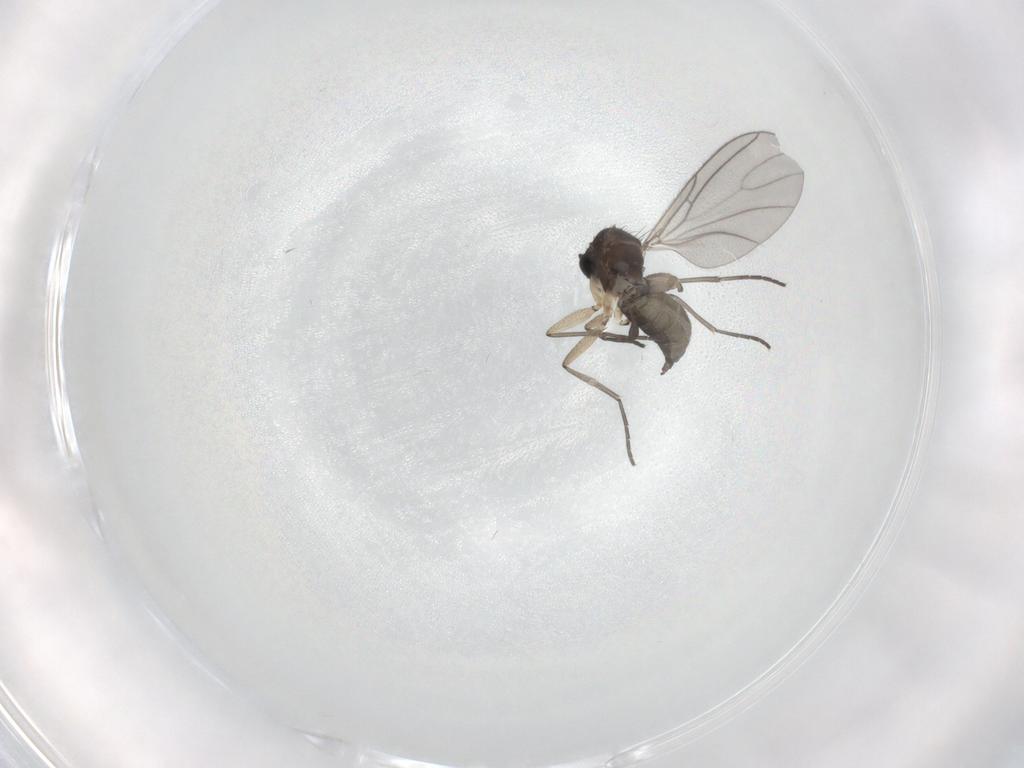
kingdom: Animalia
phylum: Arthropoda
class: Insecta
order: Diptera
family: Sciaridae
